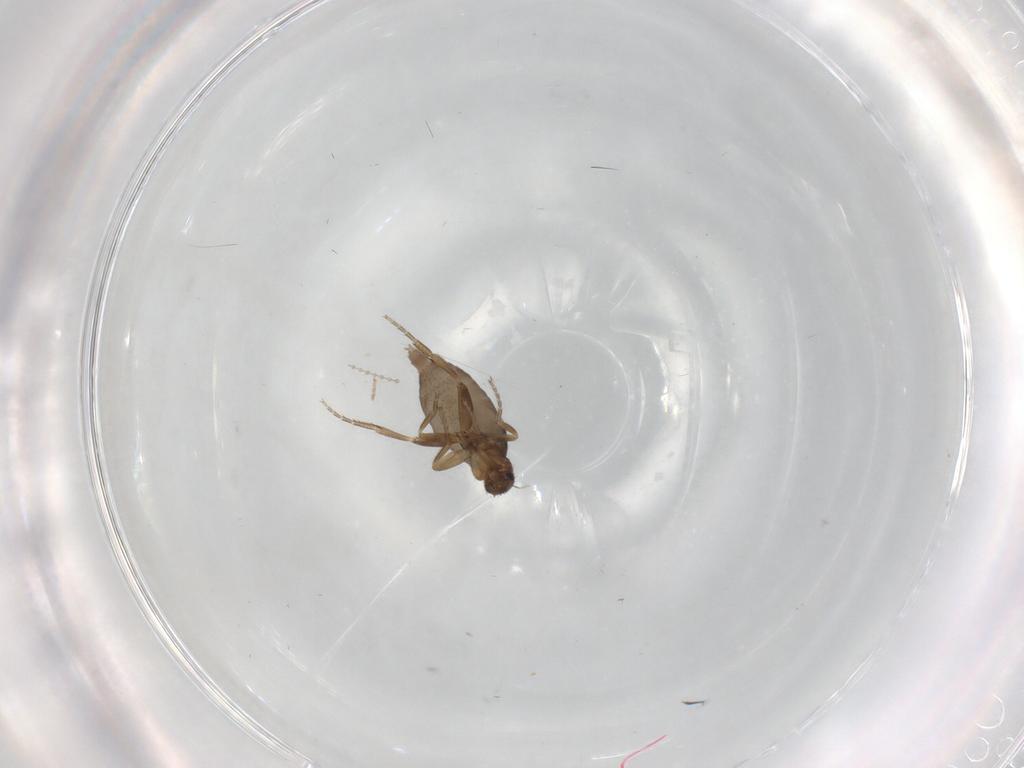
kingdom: Animalia
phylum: Arthropoda
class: Insecta
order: Diptera
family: Phoridae
